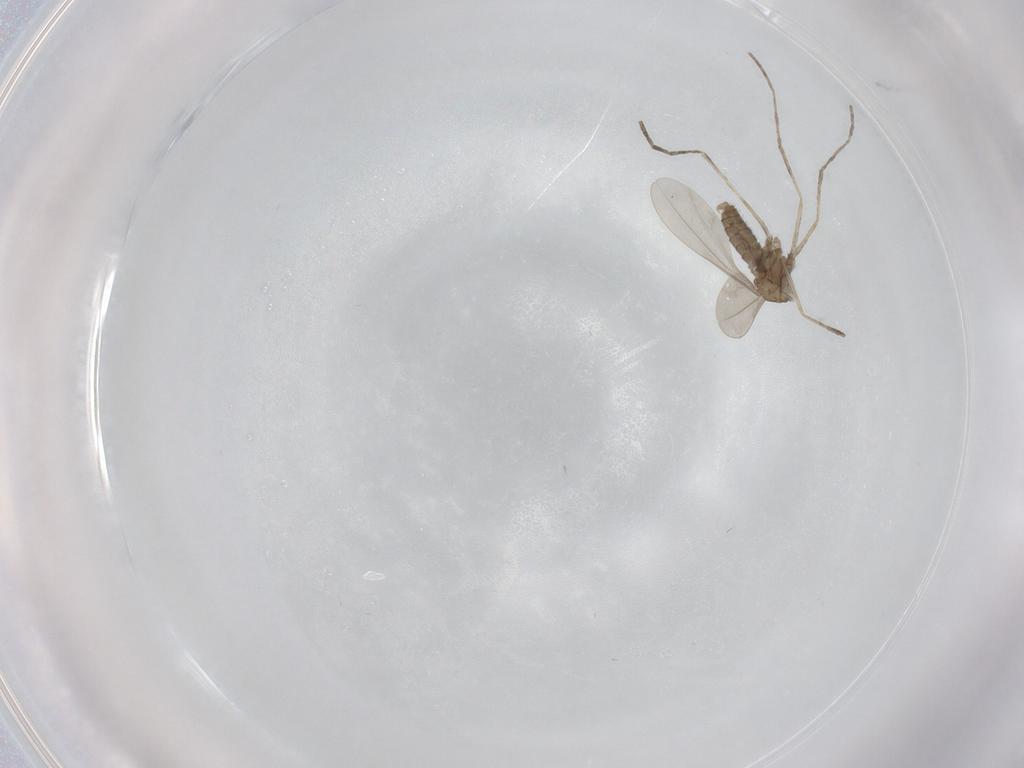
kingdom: Animalia
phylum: Arthropoda
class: Insecta
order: Diptera
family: Cecidomyiidae
